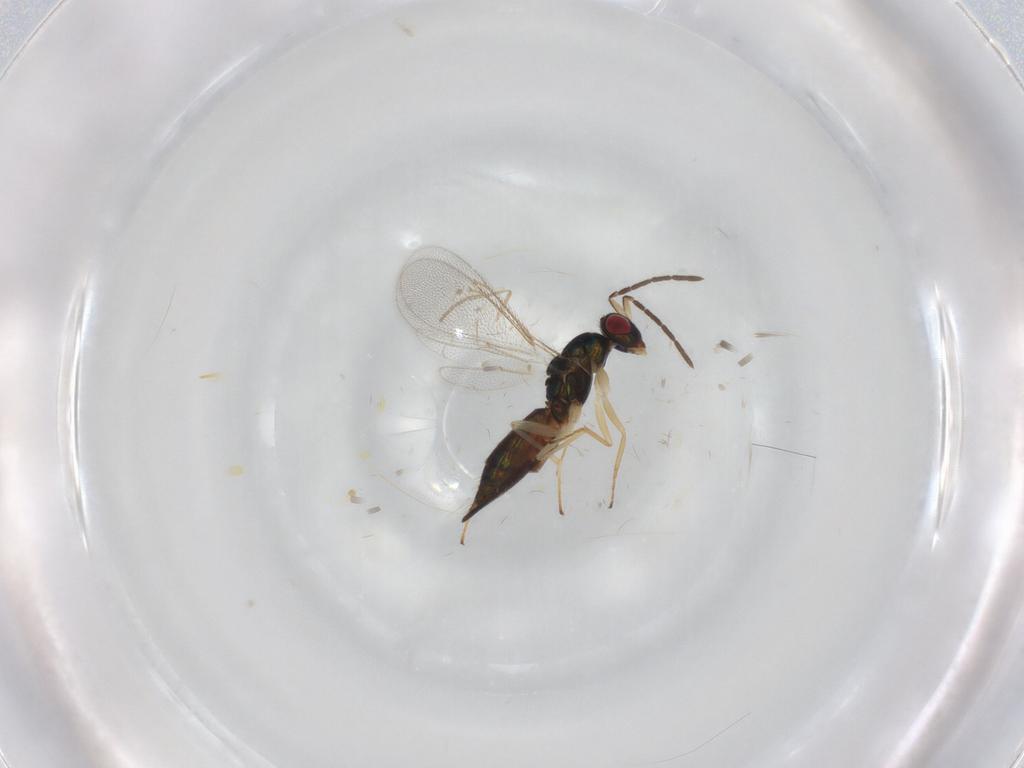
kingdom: Animalia
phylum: Arthropoda
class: Insecta
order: Hymenoptera
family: Eulophidae
